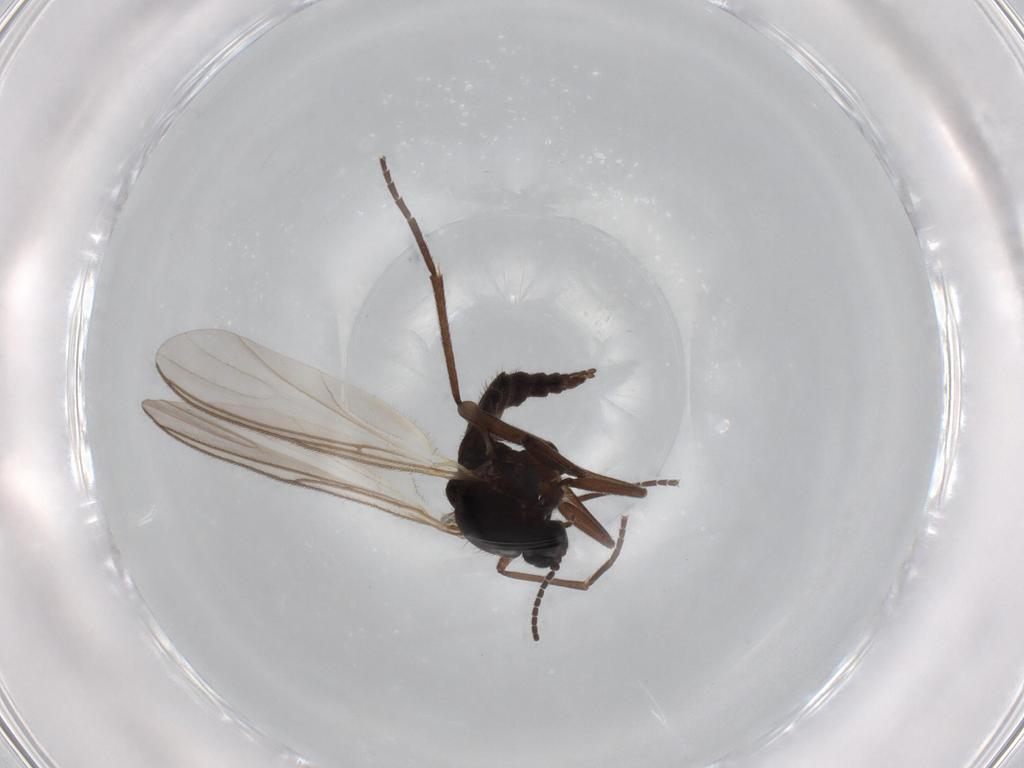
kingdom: Animalia
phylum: Arthropoda
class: Insecta
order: Diptera
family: Sciaridae
